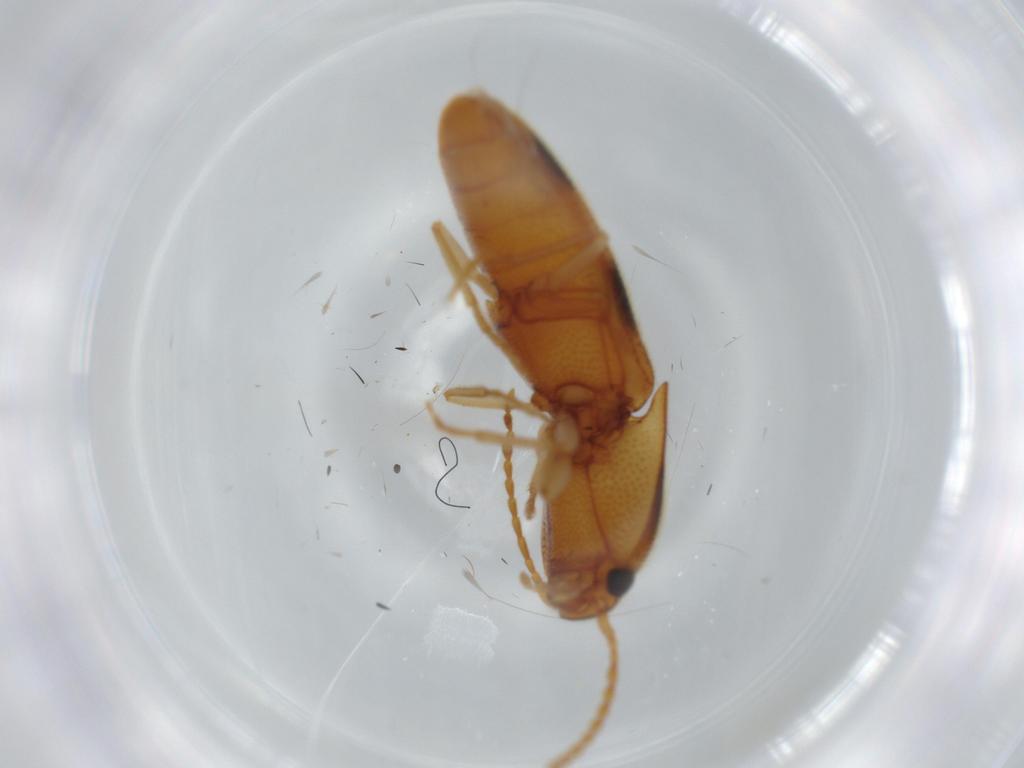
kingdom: Animalia
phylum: Arthropoda
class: Insecta
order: Coleoptera
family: Elateridae
